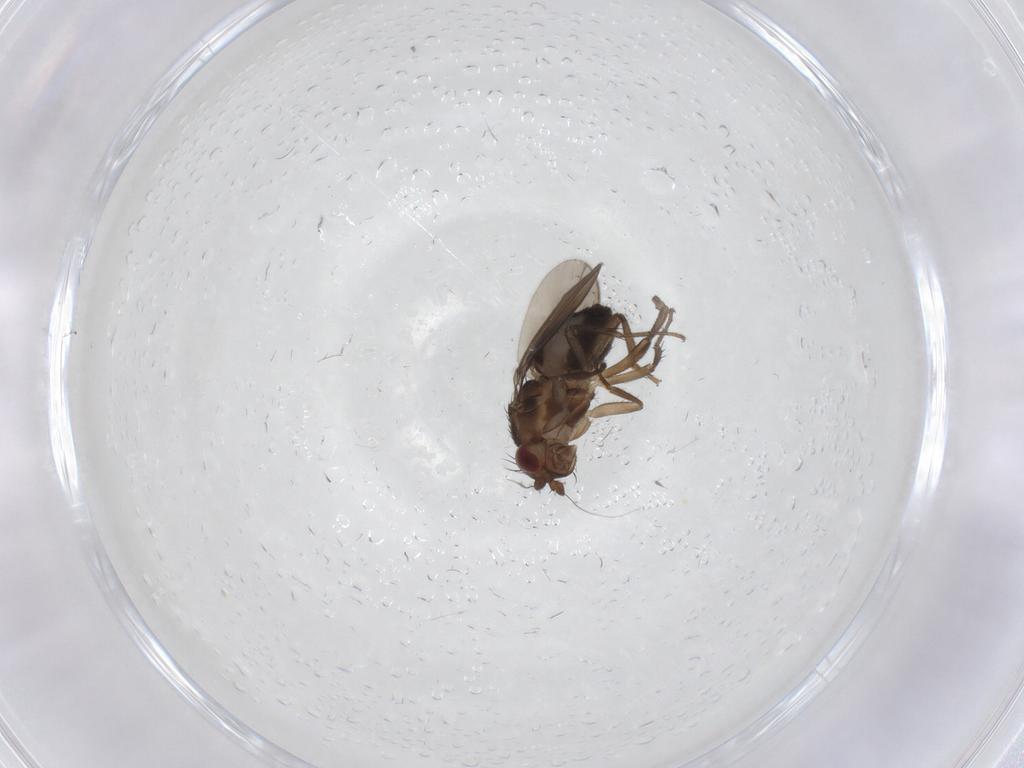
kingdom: Animalia
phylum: Arthropoda
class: Insecta
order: Diptera
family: Sphaeroceridae
